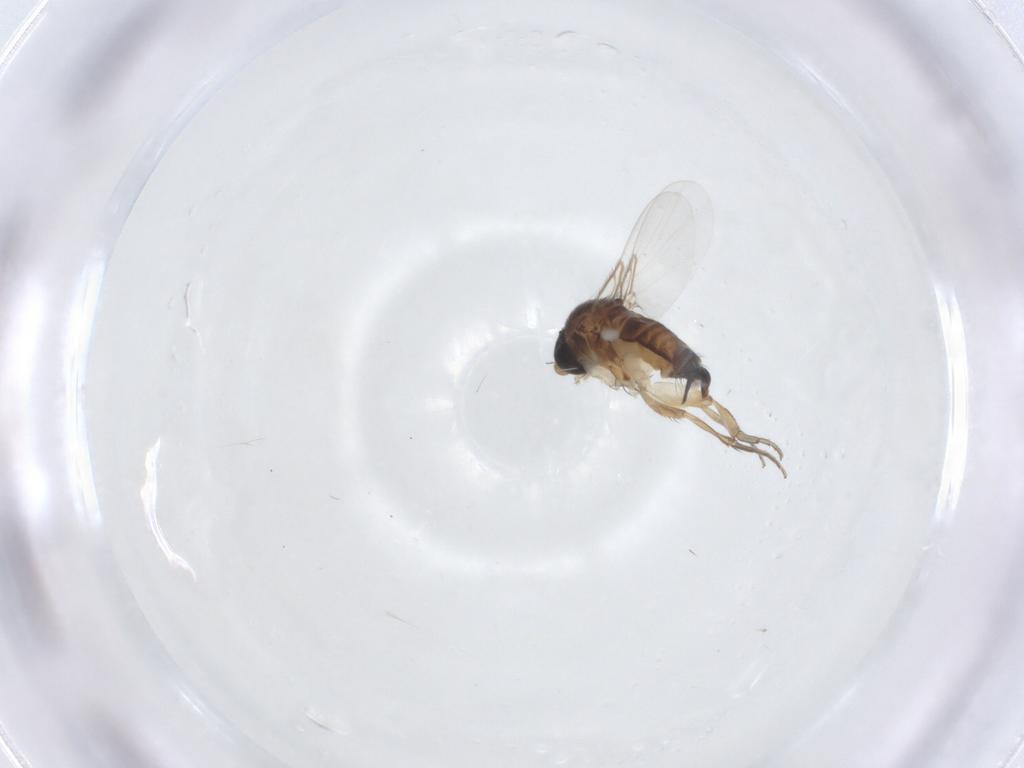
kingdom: Animalia
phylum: Arthropoda
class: Insecta
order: Diptera
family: Phoridae
